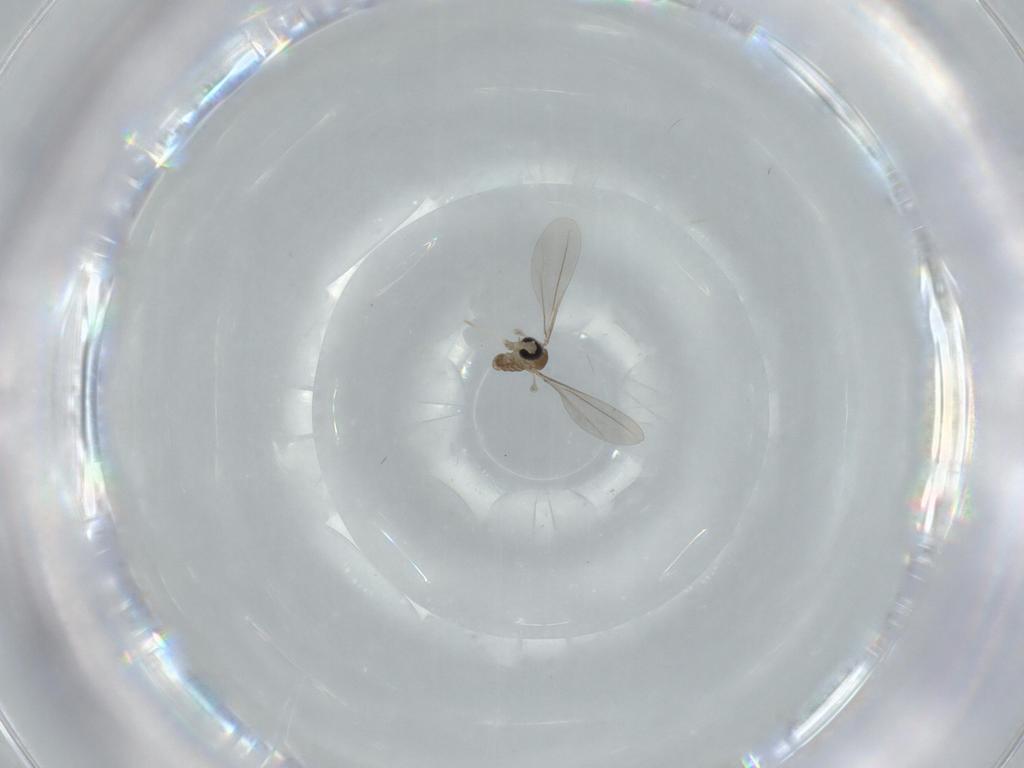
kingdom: Animalia
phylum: Arthropoda
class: Insecta
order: Diptera
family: Cecidomyiidae
